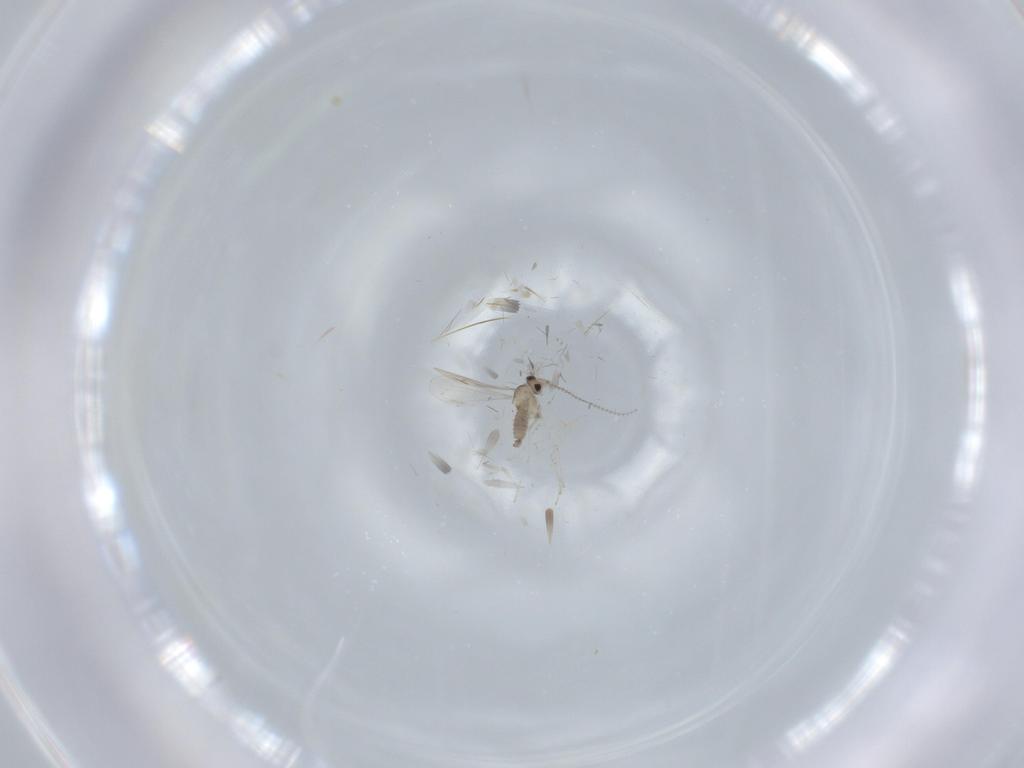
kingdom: Animalia
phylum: Arthropoda
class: Insecta
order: Diptera
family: Cecidomyiidae
